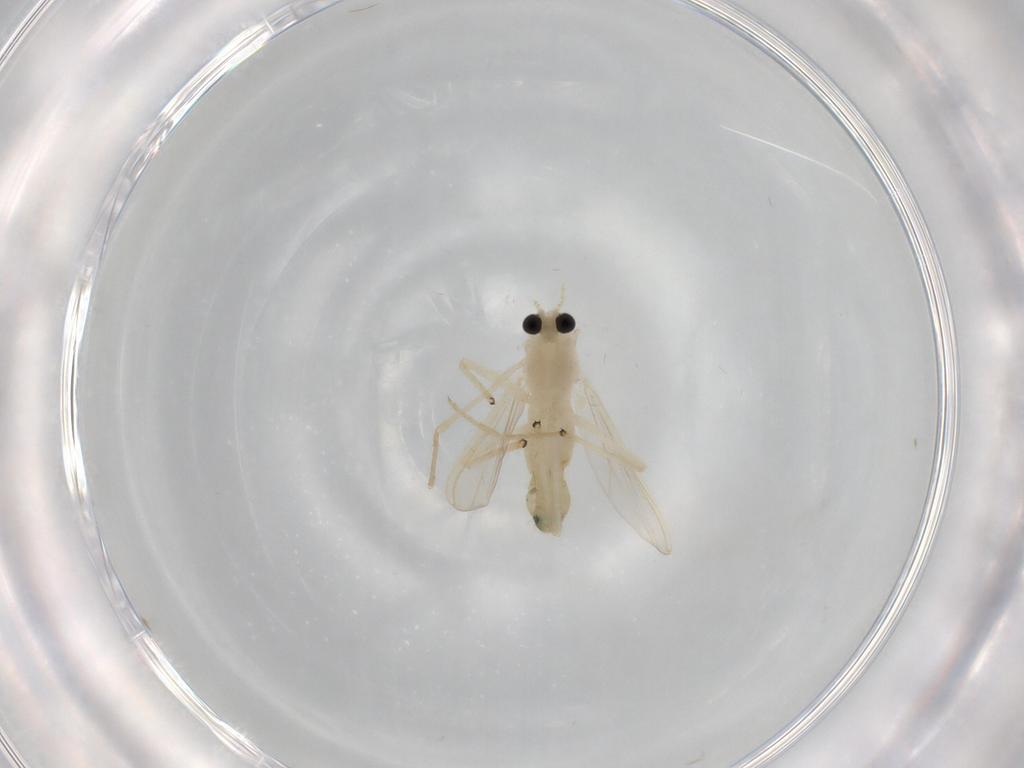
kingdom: Animalia
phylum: Arthropoda
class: Insecta
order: Diptera
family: Chironomidae
